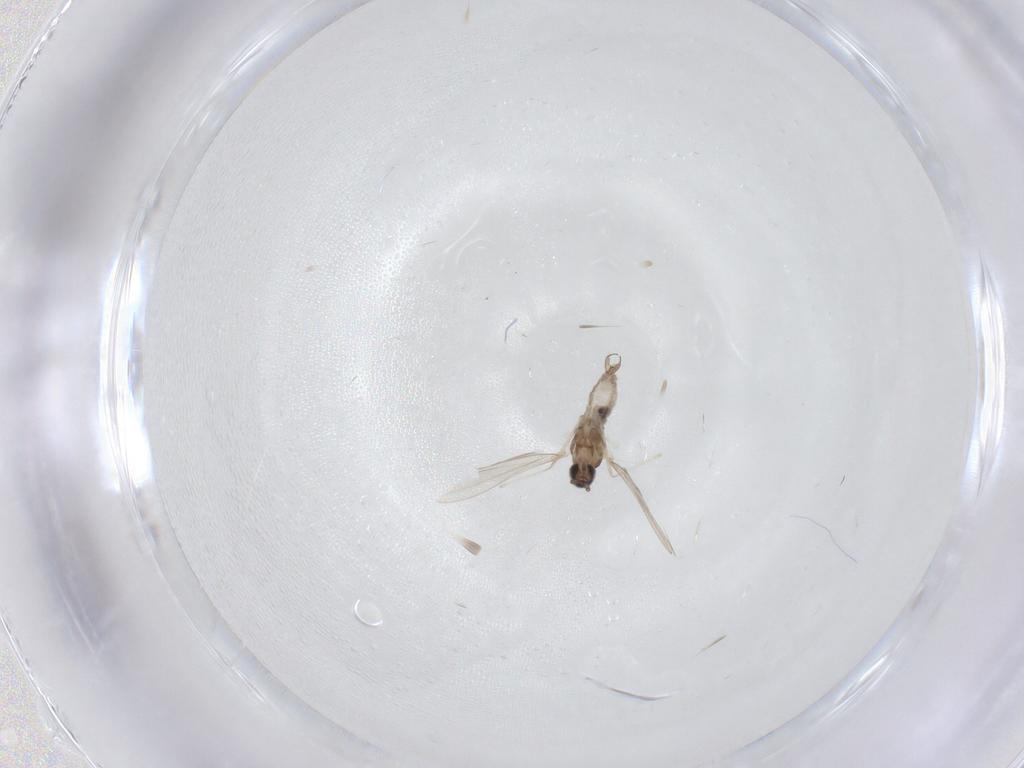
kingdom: Animalia
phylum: Arthropoda
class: Insecta
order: Diptera
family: Cecidomyiidae
